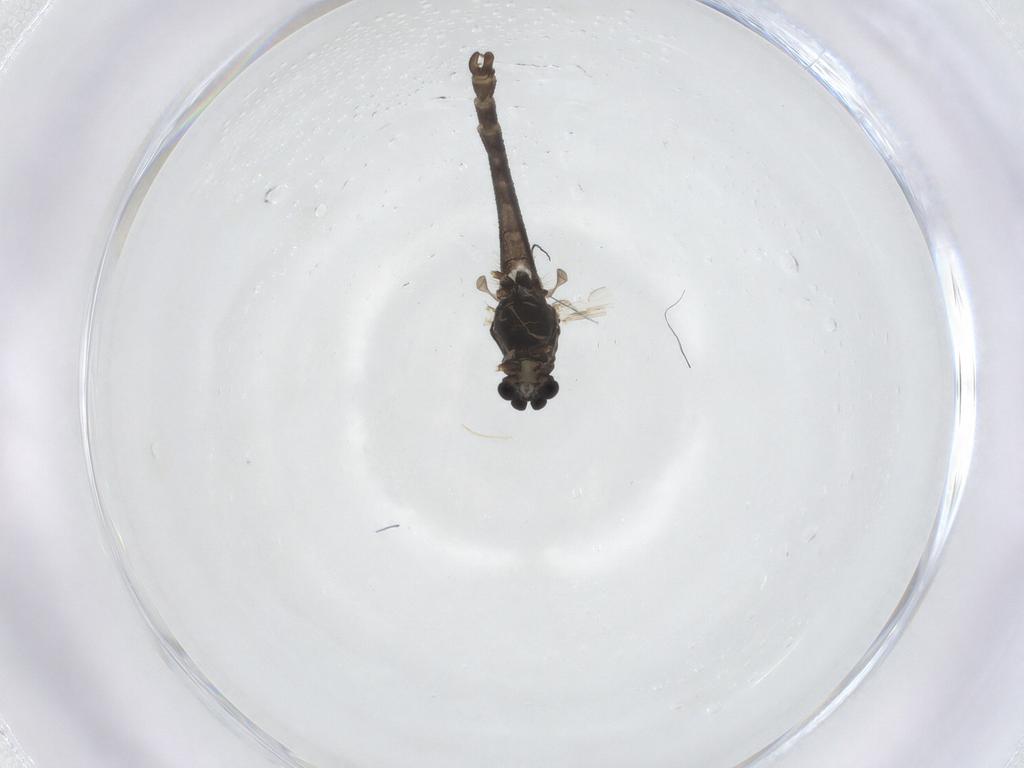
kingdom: Animalia
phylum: Arthropoda
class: Insecta
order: Diptera
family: Chironomidae
